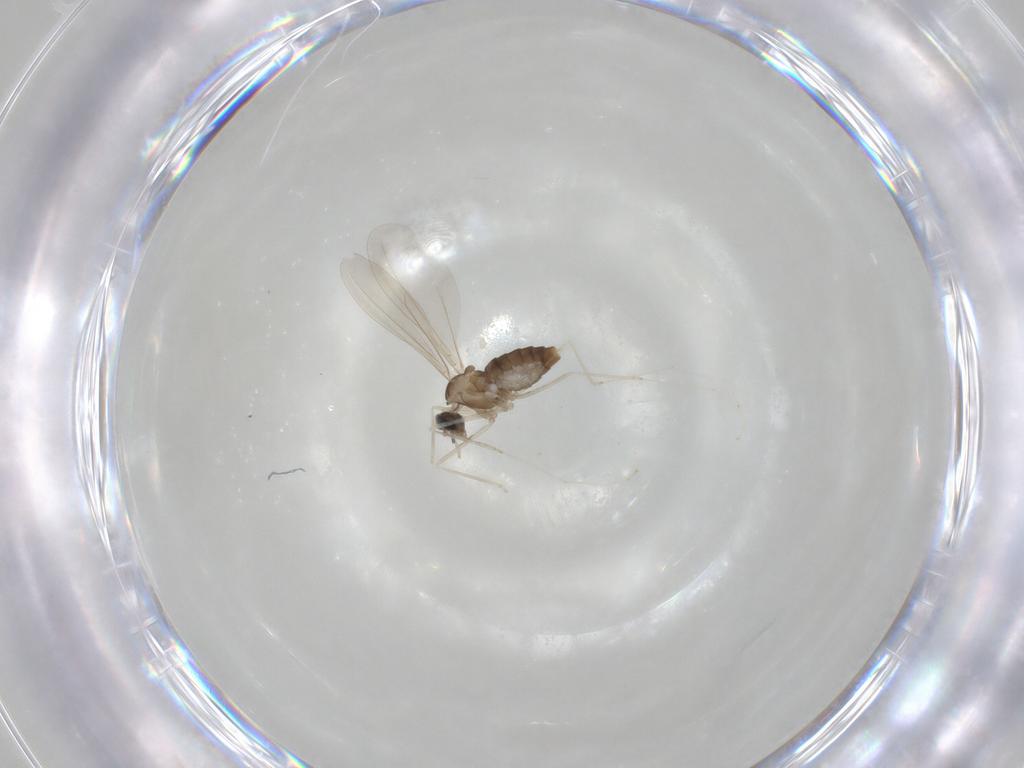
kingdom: Animalia
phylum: Arthropoda
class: Insecta
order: Diptera
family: Cecidomyiidae
